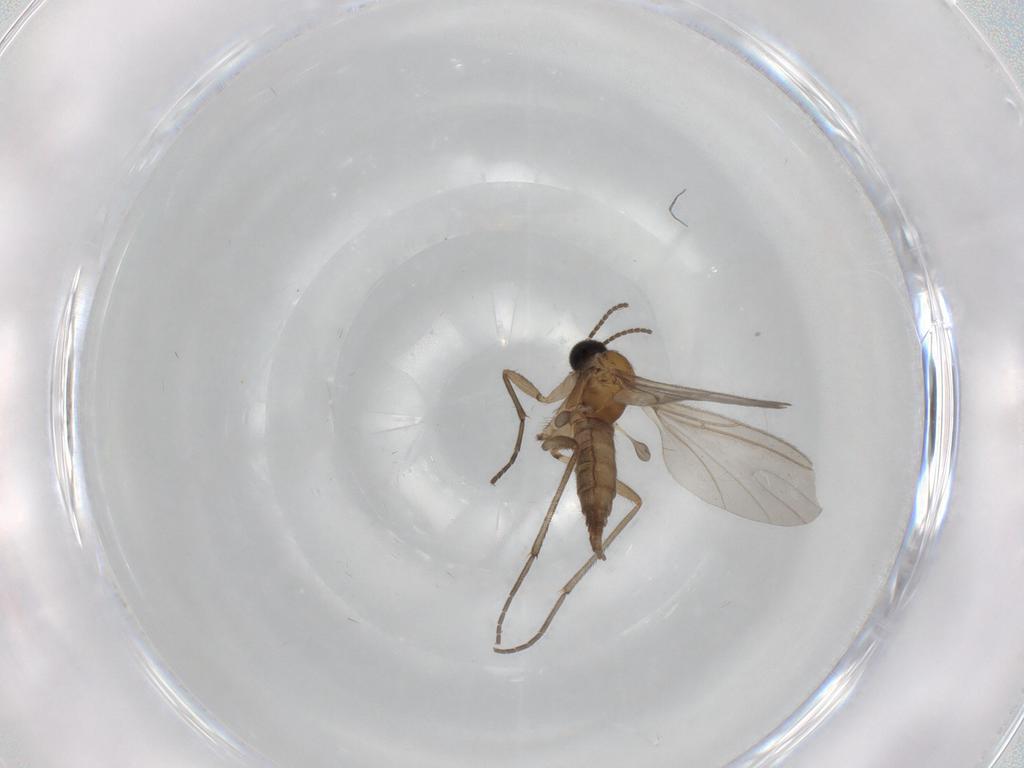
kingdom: Animalia
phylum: Arthropoda
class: Insecta
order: Diptera
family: Sciaridae
